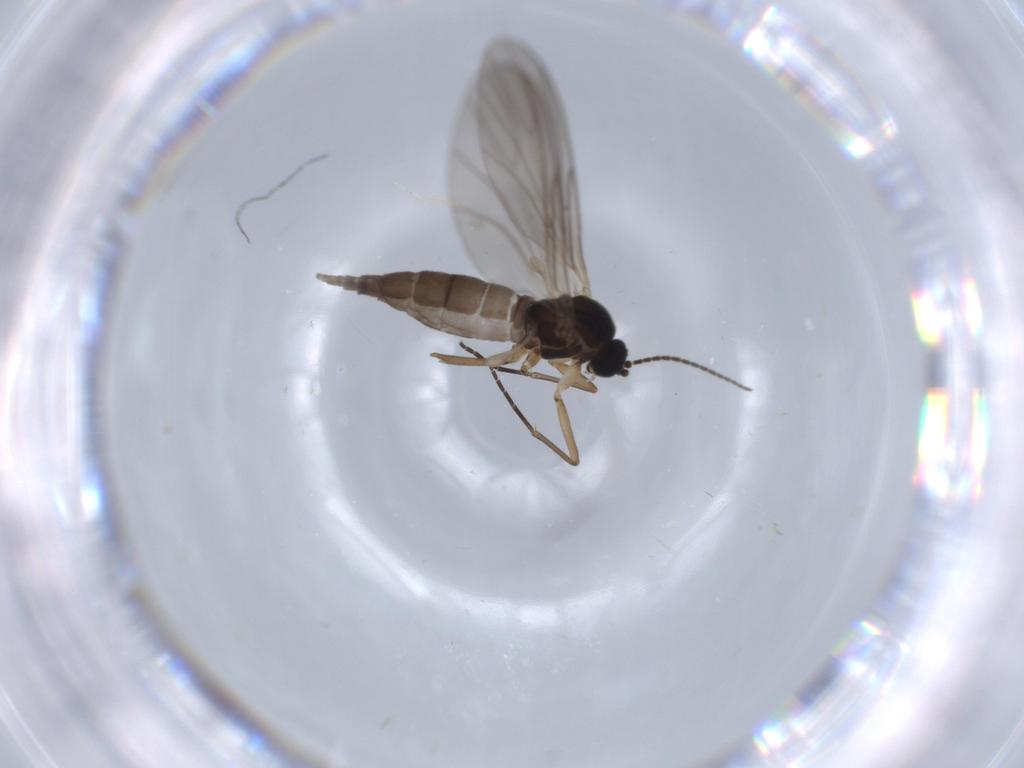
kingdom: Animalia
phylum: Arthropoda
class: Insecta
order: Diptera
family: Sciaridae
